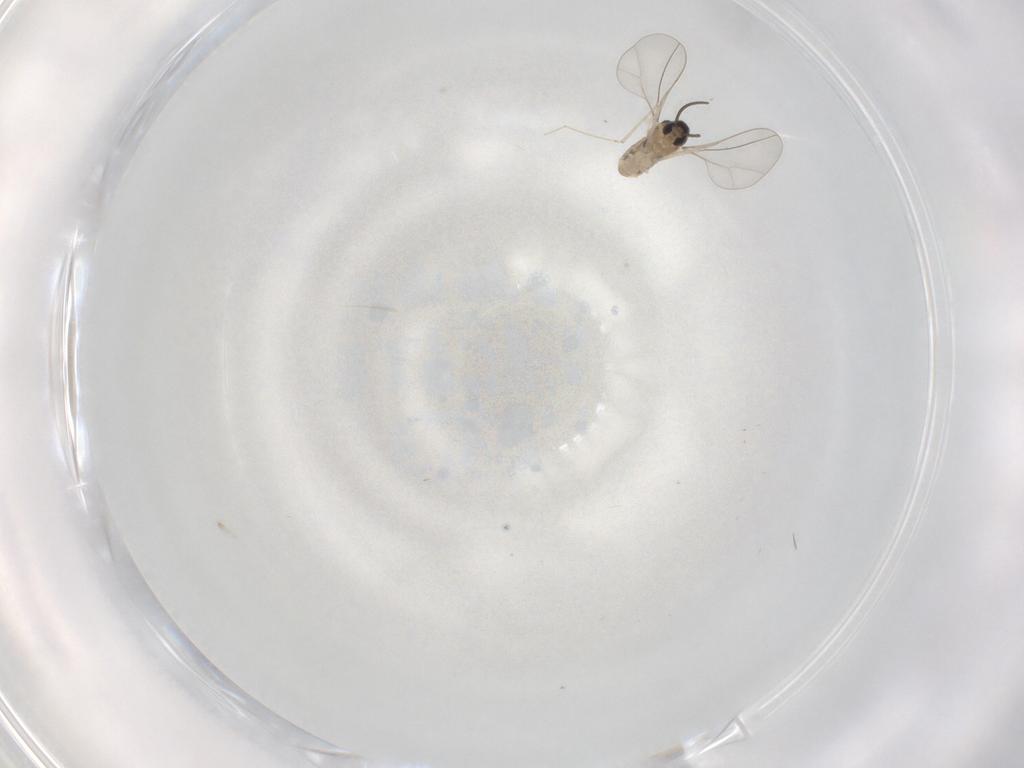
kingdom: Animalia
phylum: Arthropoda
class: Insecta
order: Diptera
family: Cecidomyiidae
